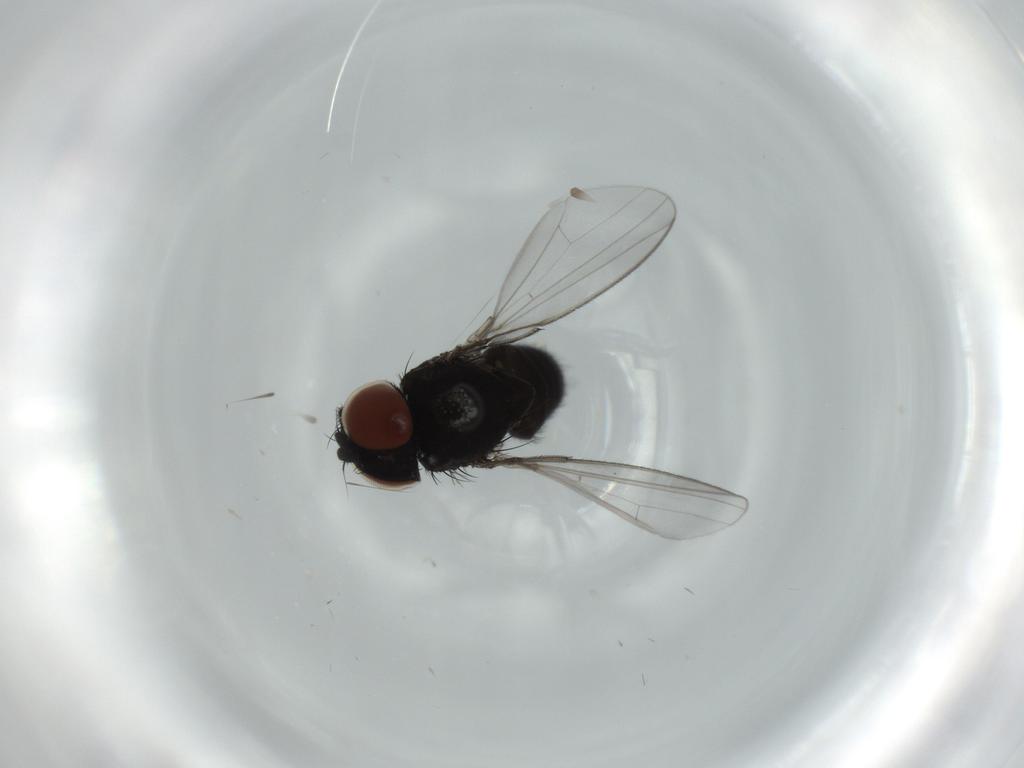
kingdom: Animalia
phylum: Arthropoda
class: Insecta
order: Diptera
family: Milichiidae
